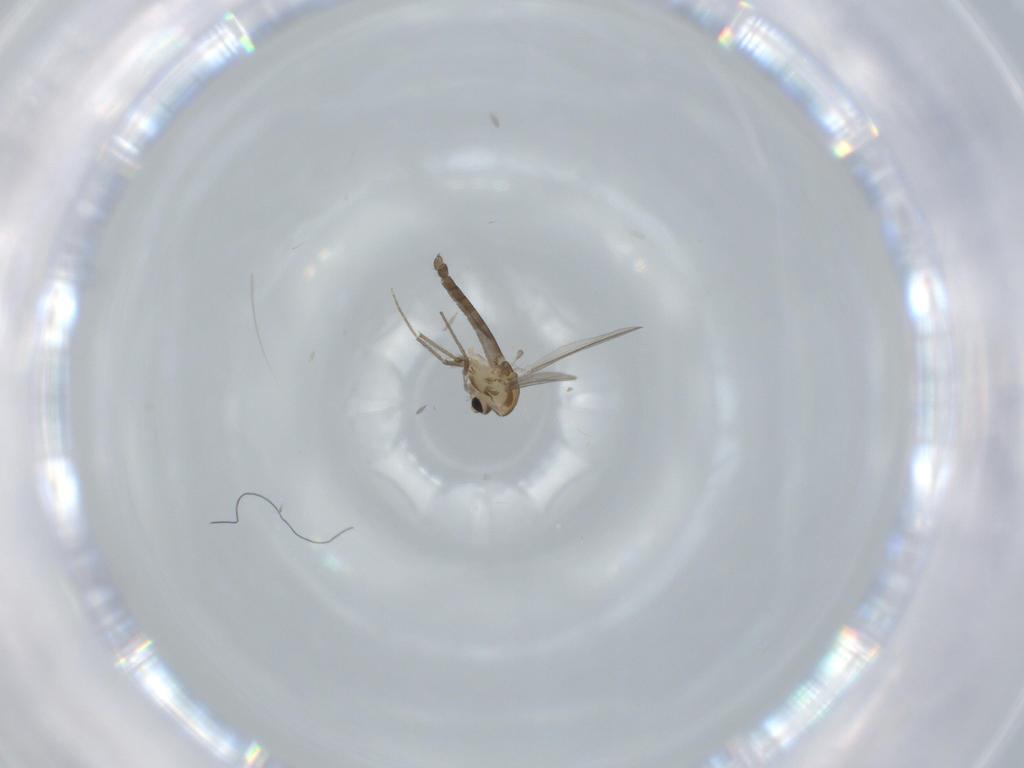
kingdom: Animalia
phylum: Arthropoda
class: Insecta
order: Diptera
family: Chironomidae
